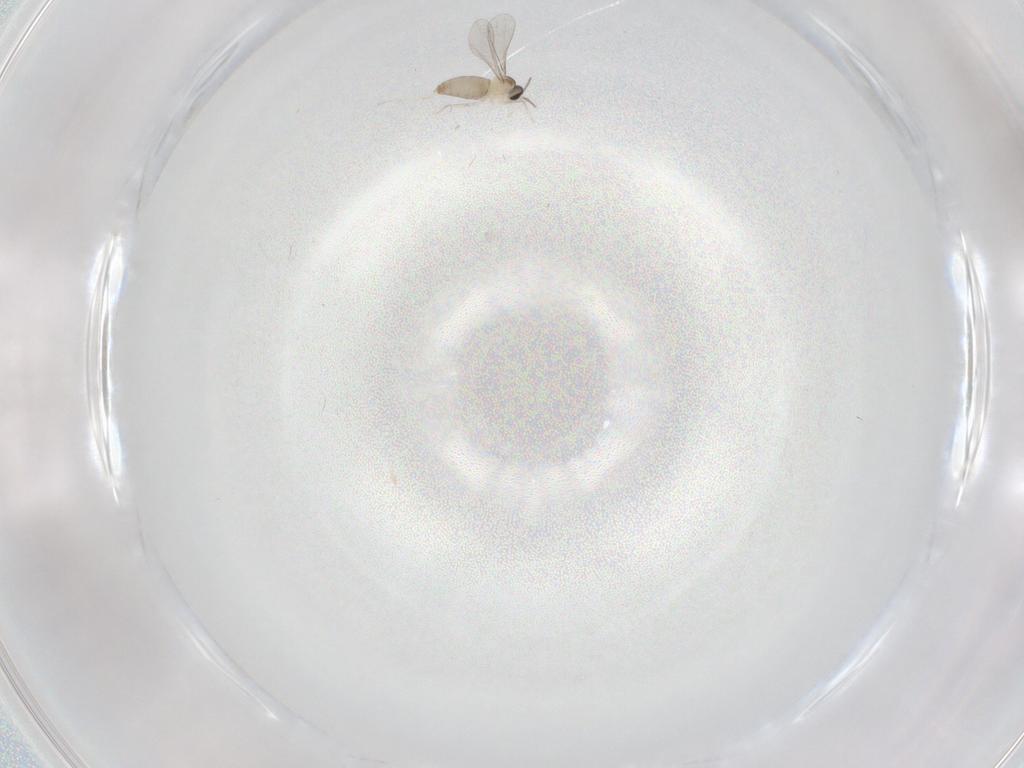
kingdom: Animalia
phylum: Arthropoda
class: Insecta
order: Diptera
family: Cecidomyiidae
